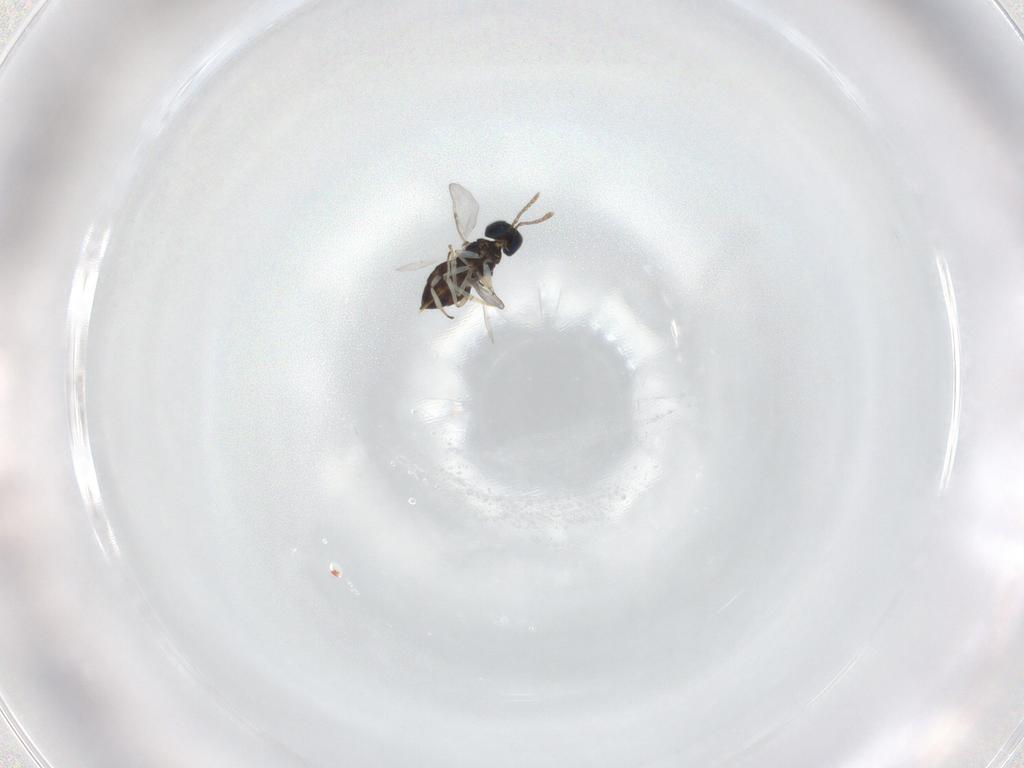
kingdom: Animalia
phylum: Arthropoda
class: Insecta
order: Hymenoptera
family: Encyrtidae
